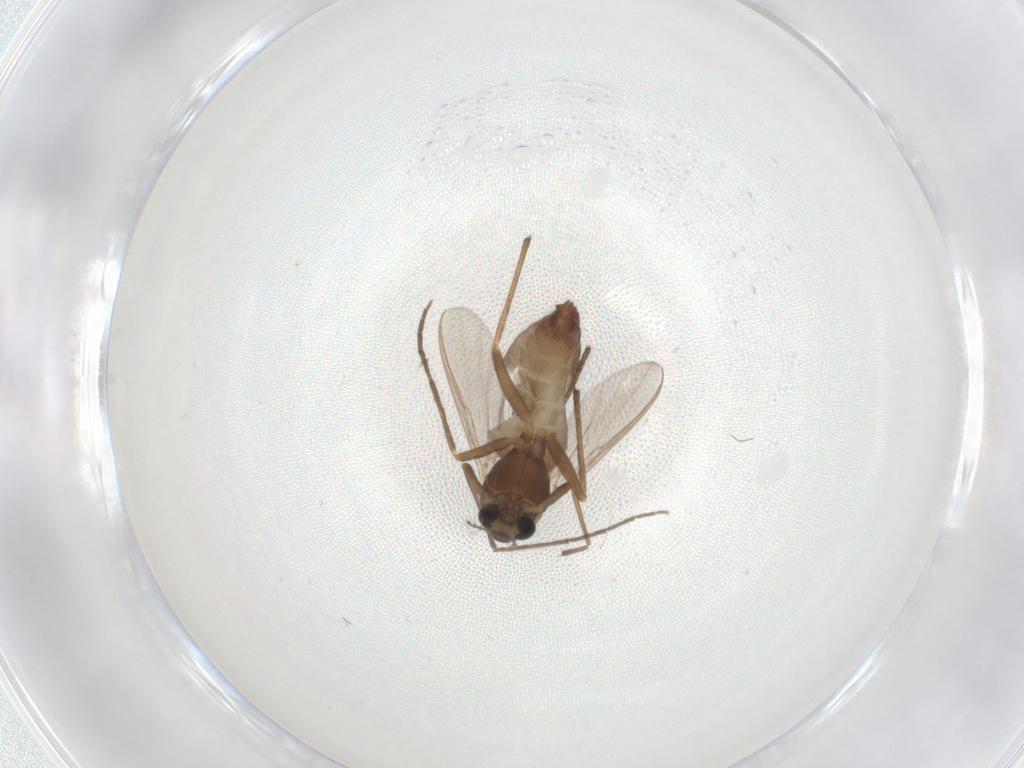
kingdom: Animalia
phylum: Arthropoda
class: Insecta
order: Diptera
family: Chironomidae
